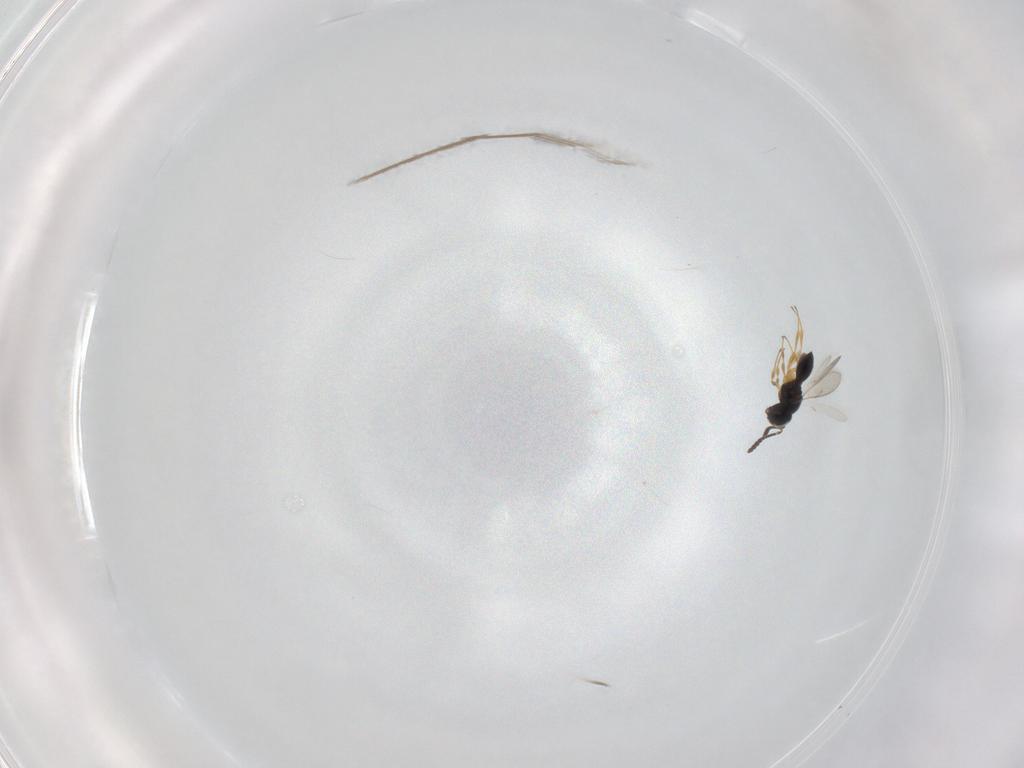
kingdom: Animalia
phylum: Arthropoda
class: Insecta
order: Hymenoptera
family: Scelionidae
